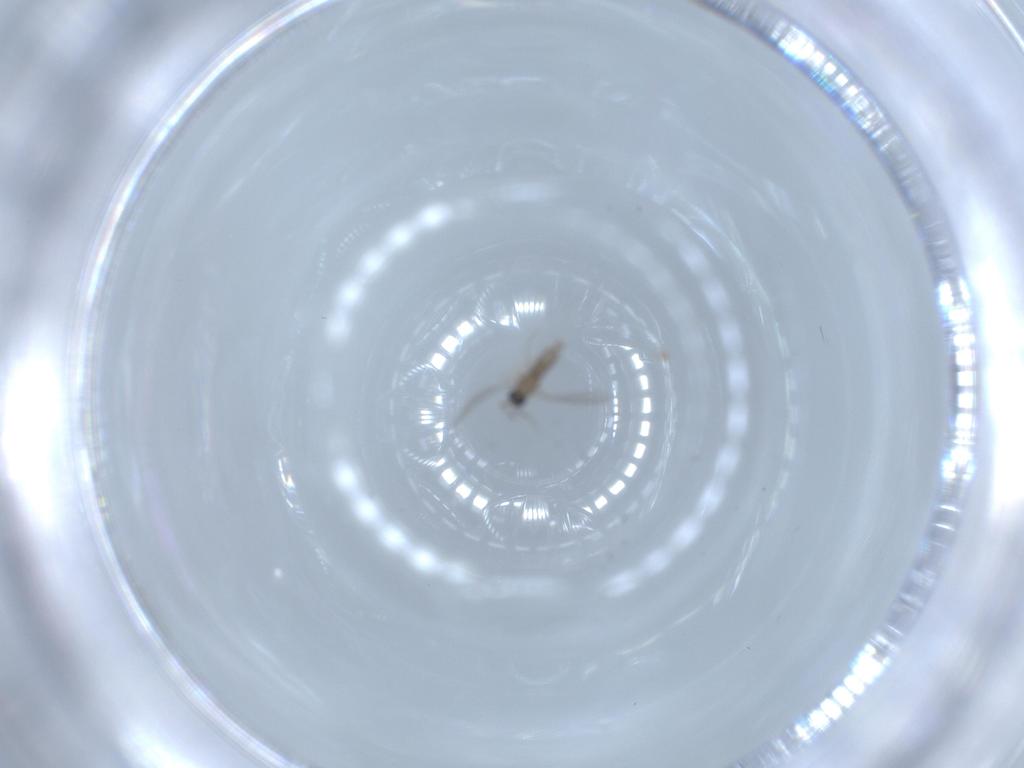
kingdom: Animalia
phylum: Arthropoda
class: Insecta
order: Diptera
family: Cecidomyiidae
